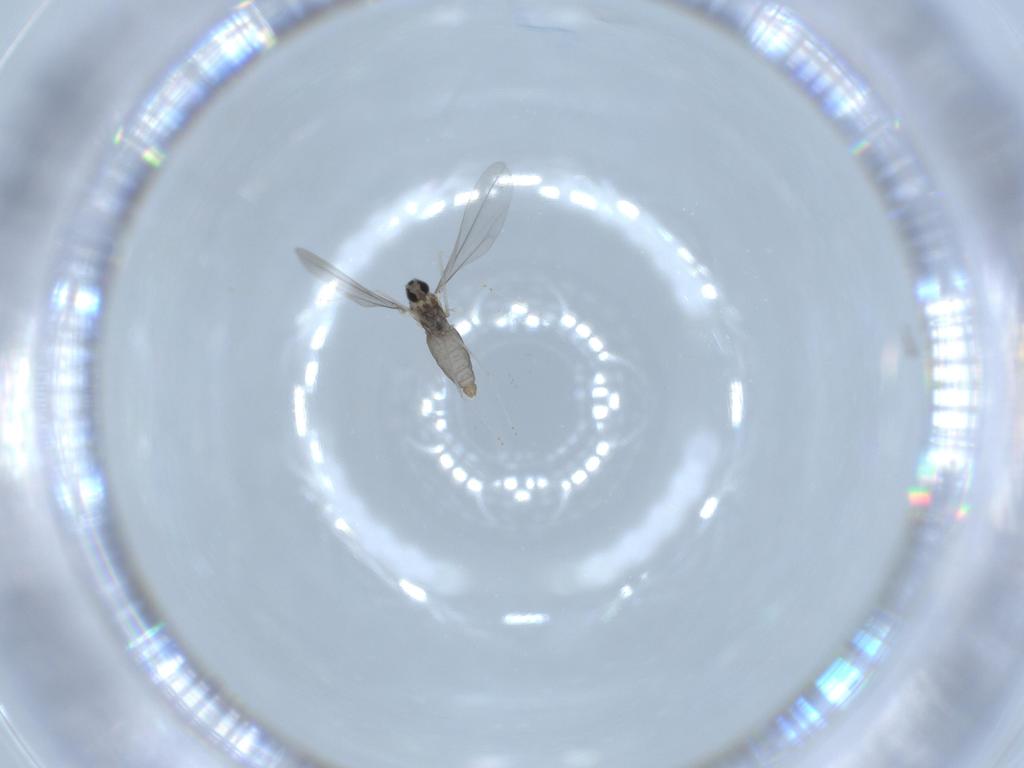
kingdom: Animalia
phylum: Arthropoda
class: Insecta
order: Diptera
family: Cecidomyiidae
